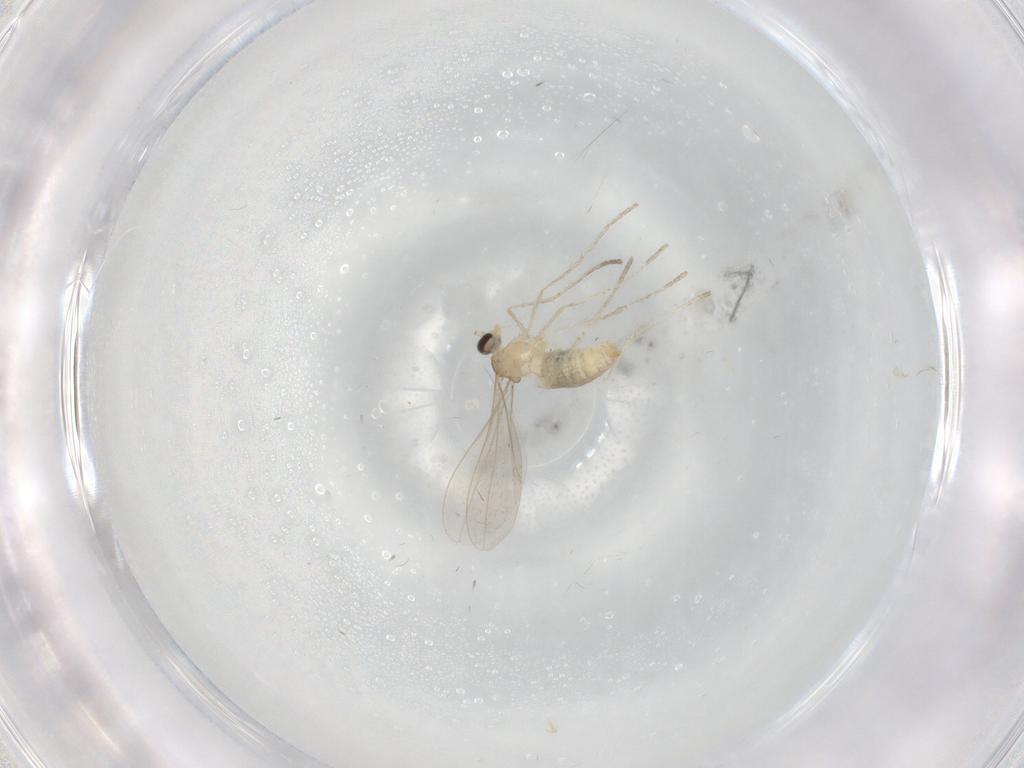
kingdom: Animalia
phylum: Arthropoda
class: Insecta
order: Diptera
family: Cecidomyiidae
